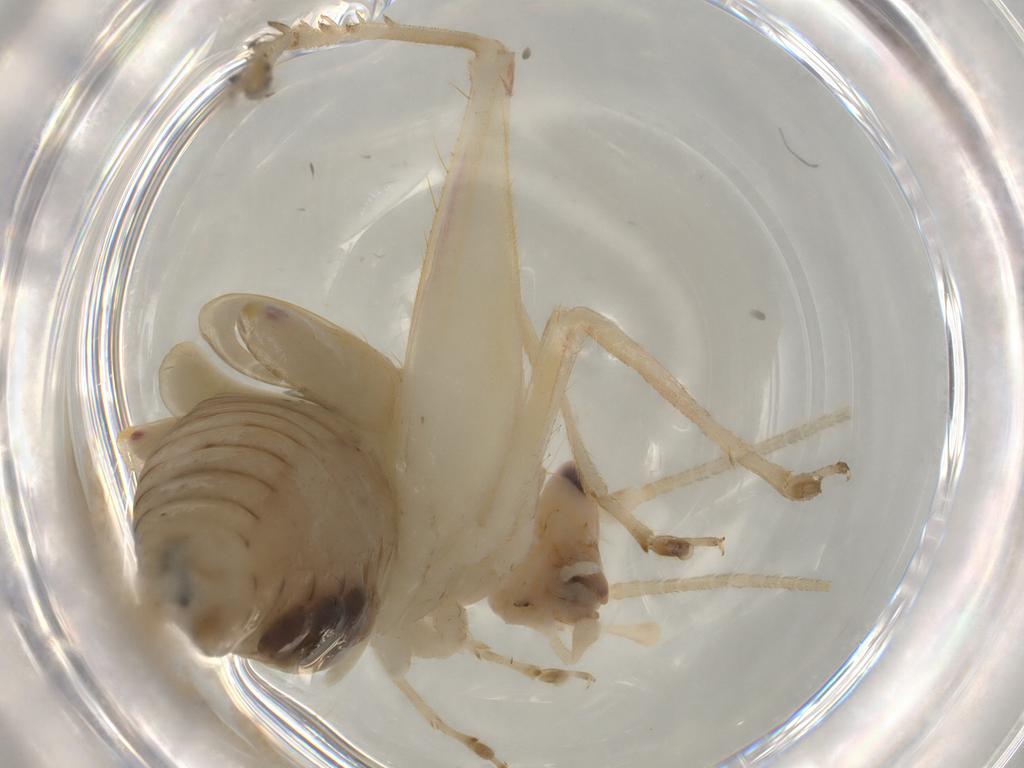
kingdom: Animalia
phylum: Arthropoda
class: Insecta
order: Orthoptera
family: Trigonidiidae
